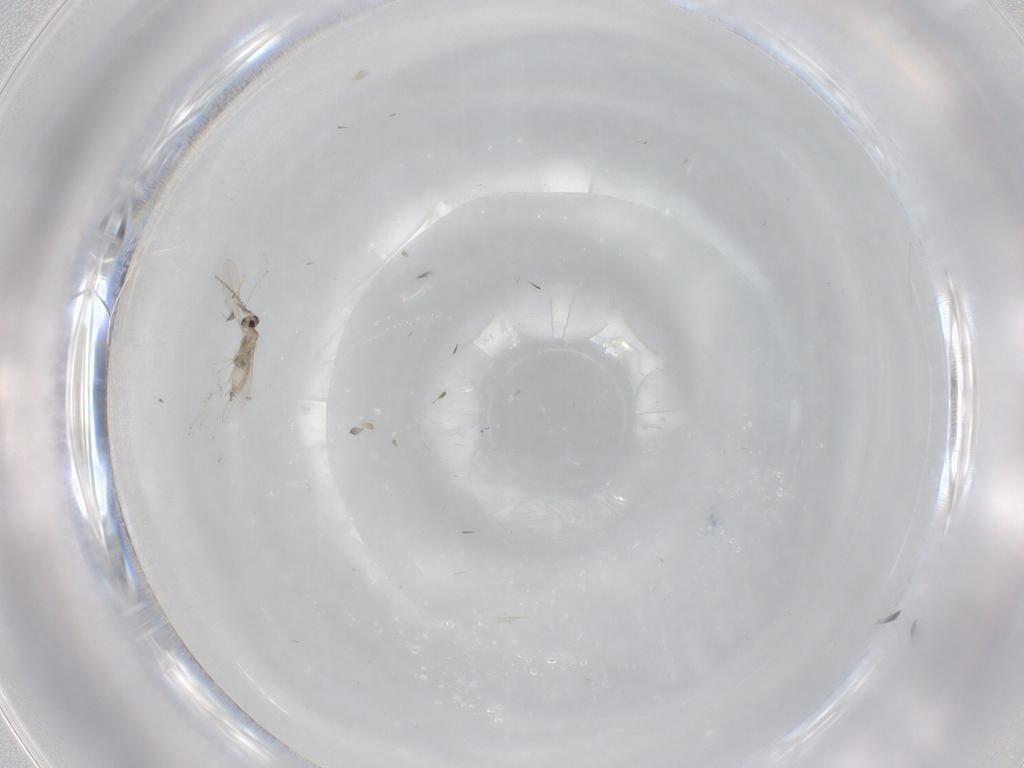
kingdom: Animalia
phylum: Arthropoda
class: Insecta
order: Diptera
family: Cecidomyiidae
